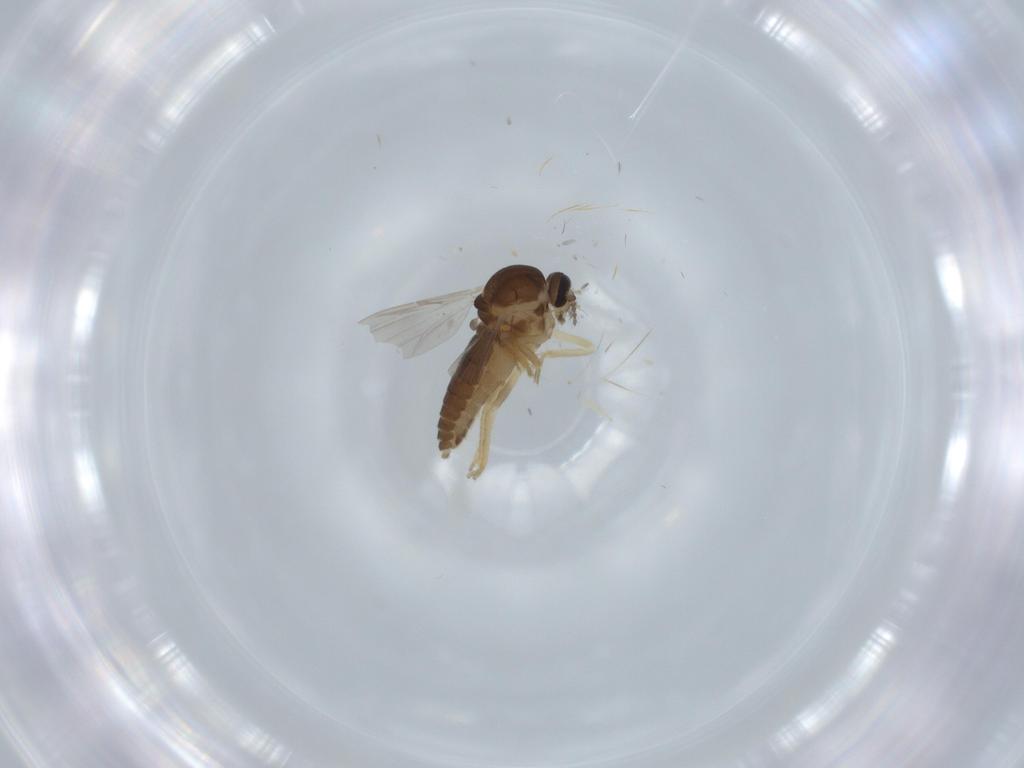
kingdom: Animalia
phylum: Arthropoda
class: Insecta
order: Diptera
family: Ceratopogonidae
